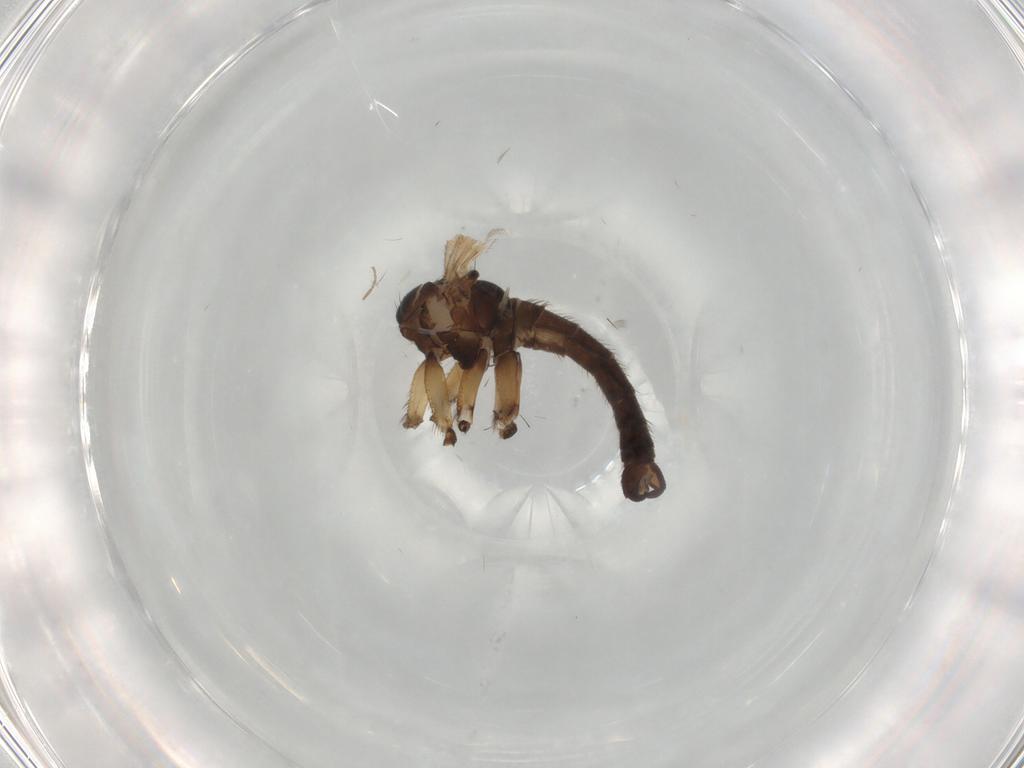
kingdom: Animalia
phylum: Arthropoda
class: Insecta
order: Diptera
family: Sciaridae
